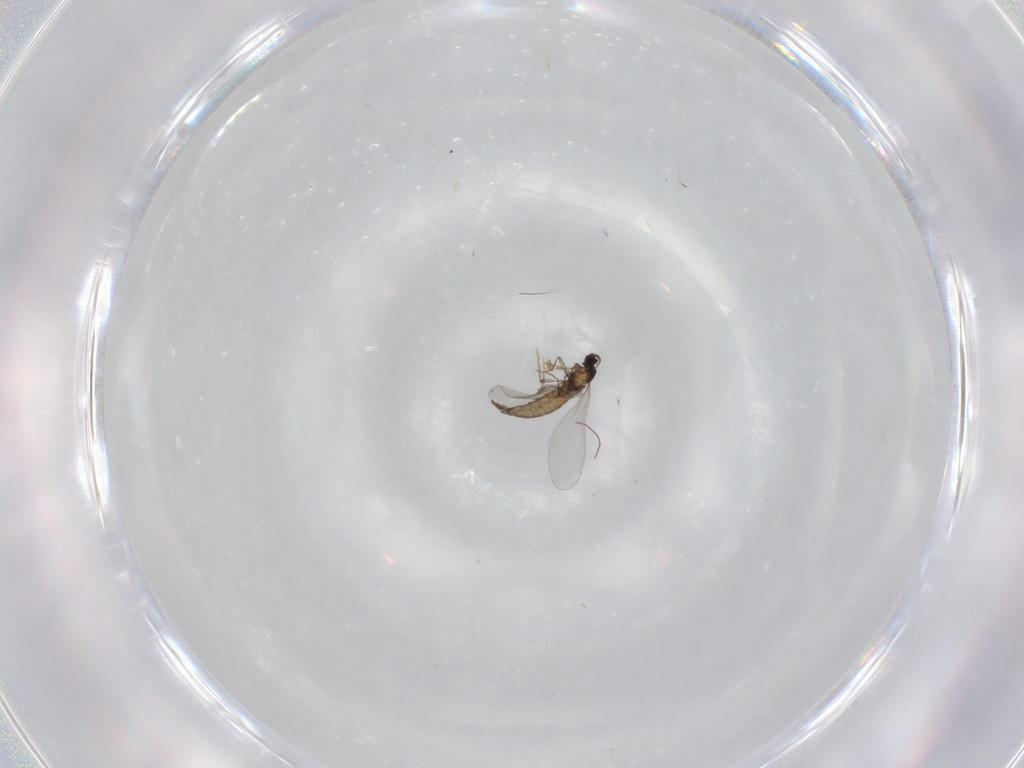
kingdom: Animalia
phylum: Arthropoda
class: Insecta
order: Diptera
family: Cecidomyiidae
